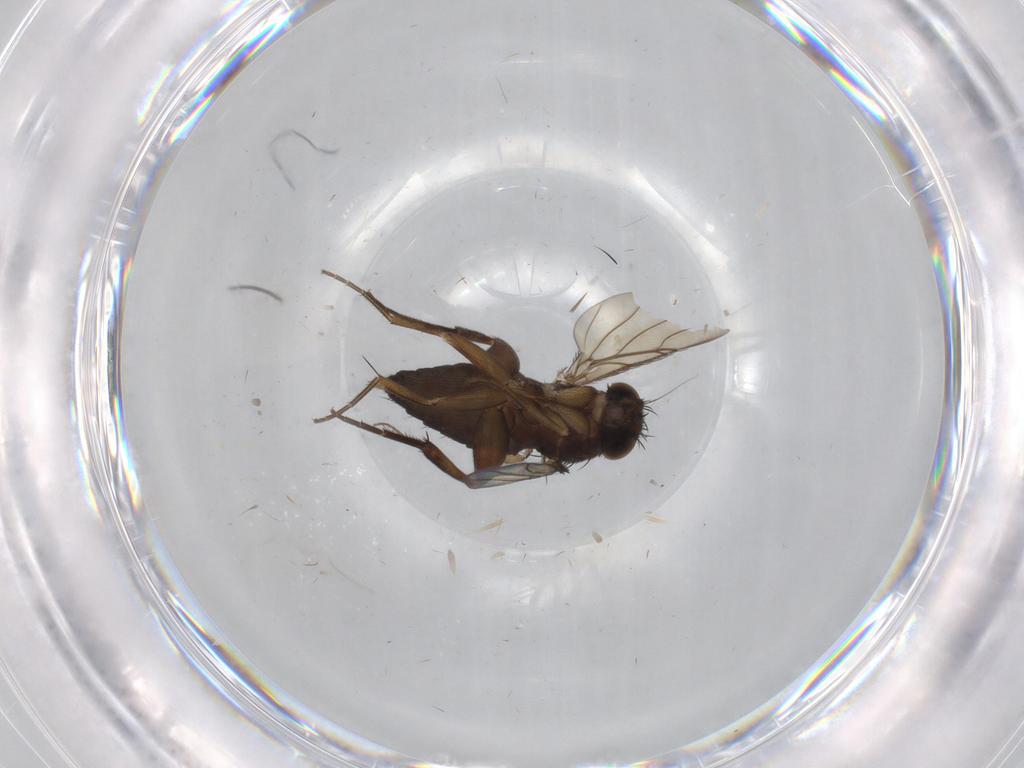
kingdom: Animalia
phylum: Arthropoda
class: Insecta
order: Diptera
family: Phoridae
